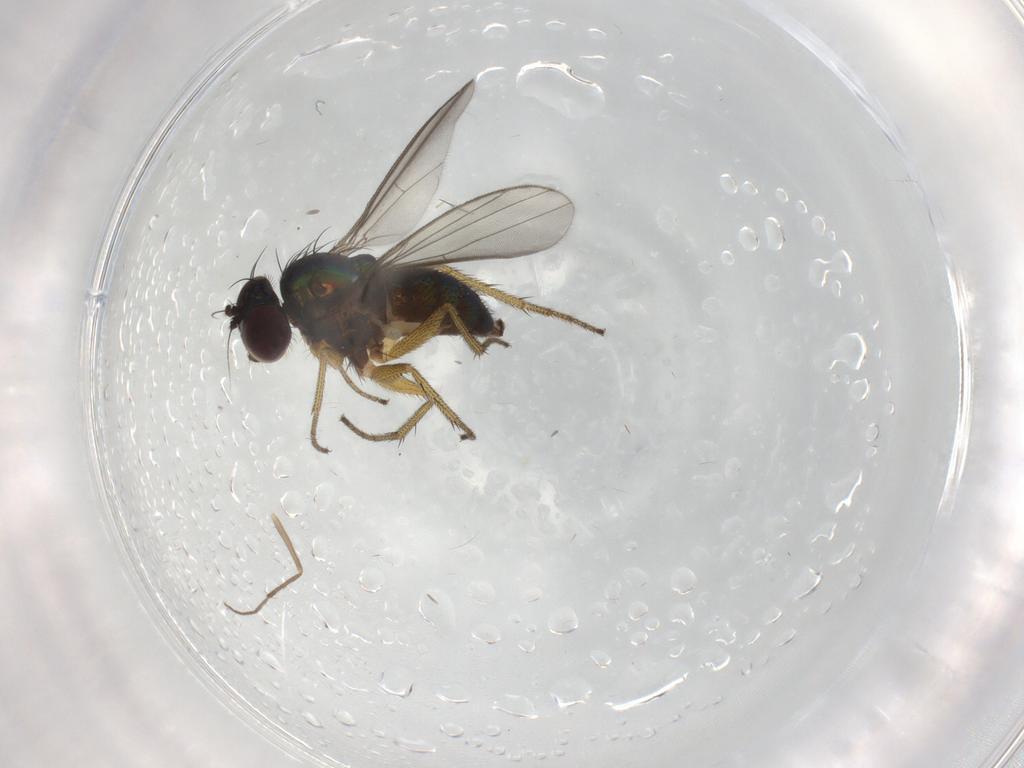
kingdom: Animalia
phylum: Arthropoda
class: Insecta
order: Diptera
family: Dolichopodidae
